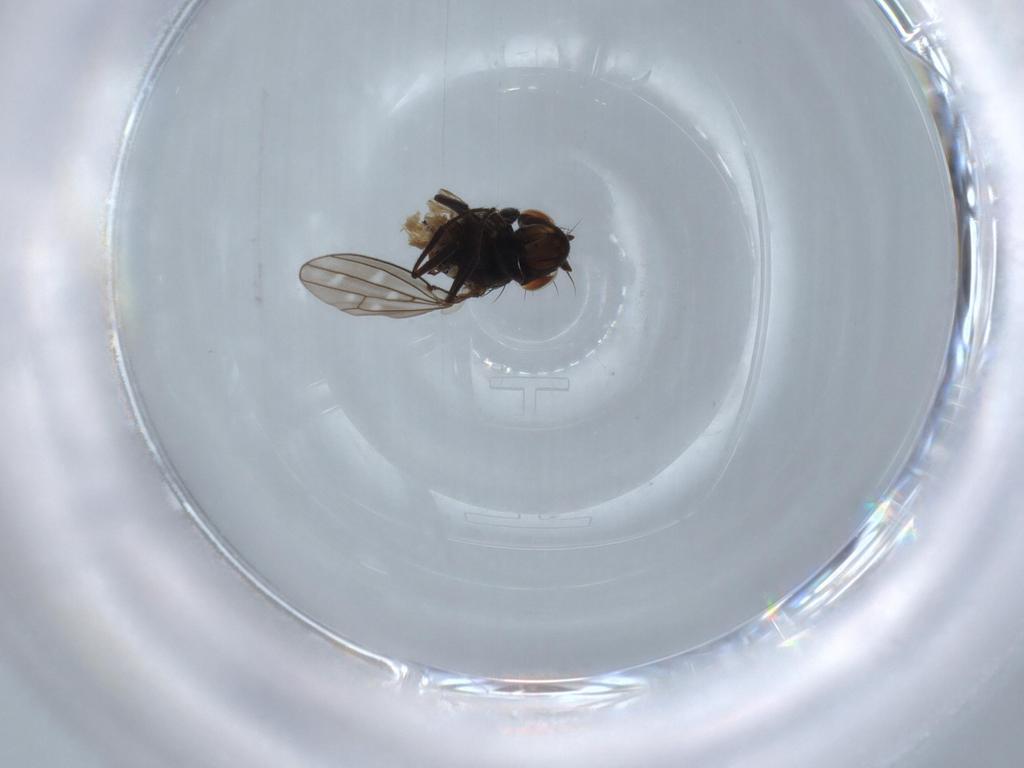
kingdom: Animalia
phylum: Arthropoda
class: Insecta
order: Diptera
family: Ephydridae
